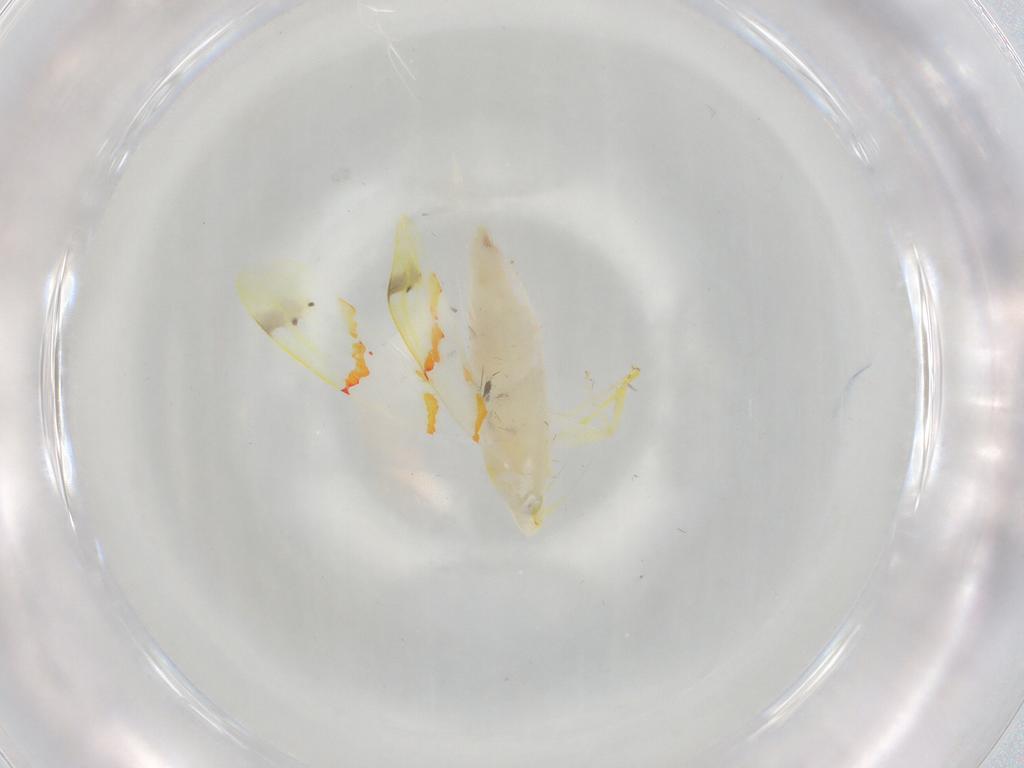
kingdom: Animalia
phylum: Arthropoda
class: Insecta
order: Hemiptera
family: Cicadellidae
